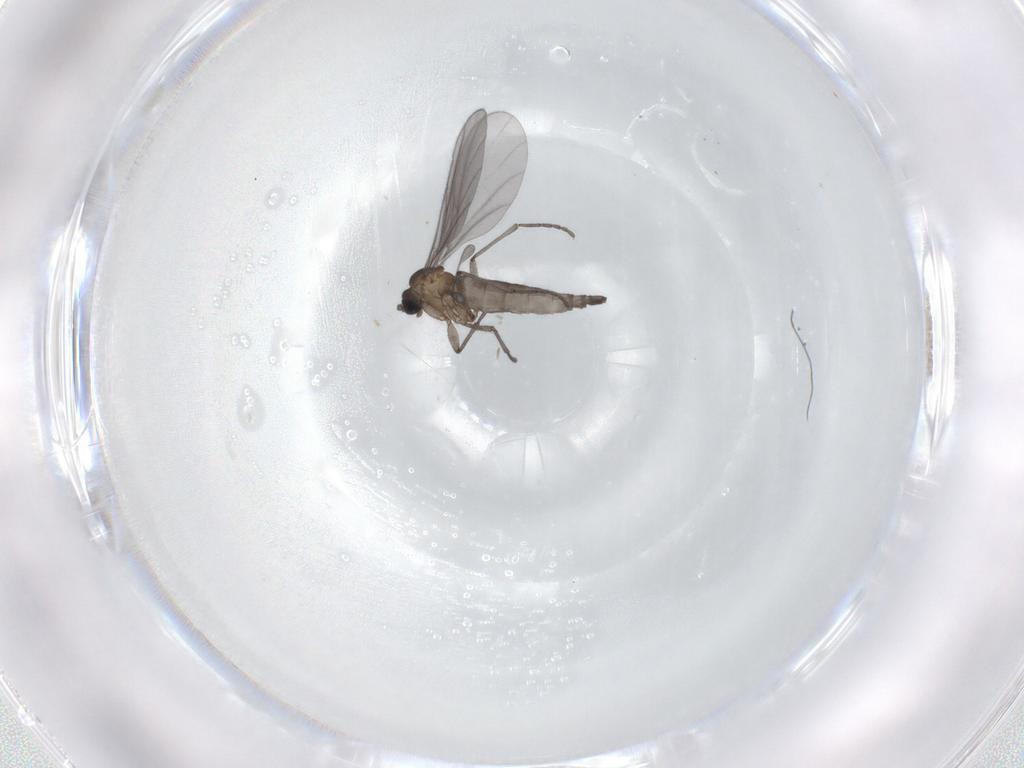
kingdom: Animalia
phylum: Arthropoda
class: Insecta
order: Diptera
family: Sciaridae
